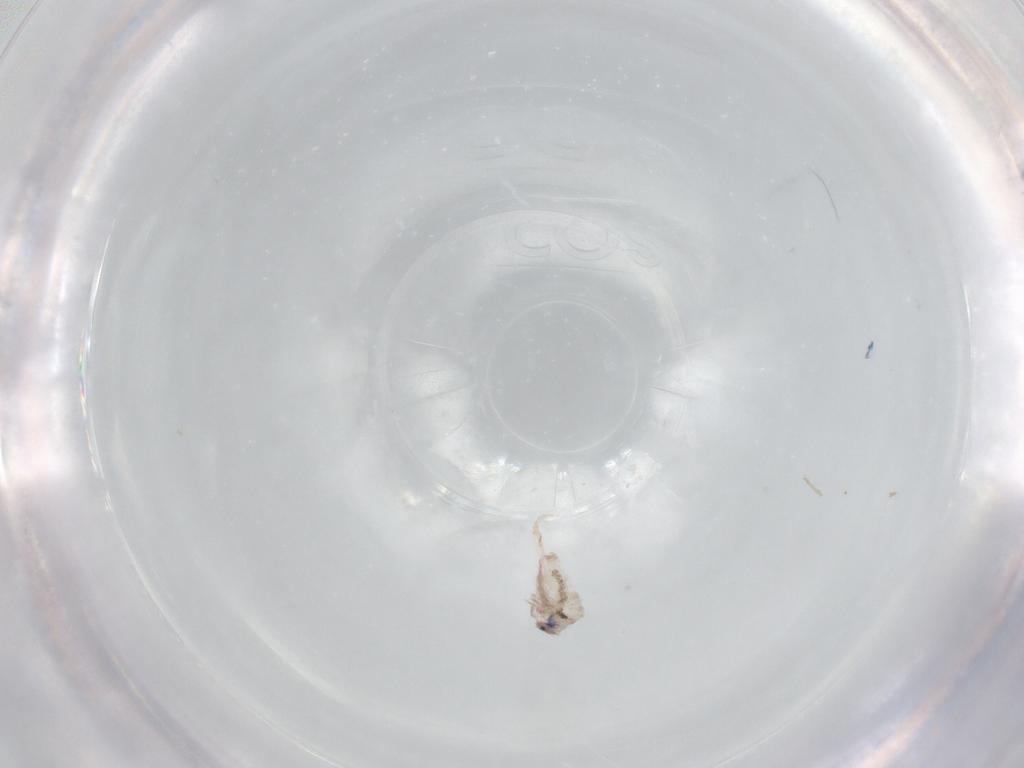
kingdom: Animalia
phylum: Arthropoda
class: Collembola
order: Entomobryomorpha
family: Entomobryidae
